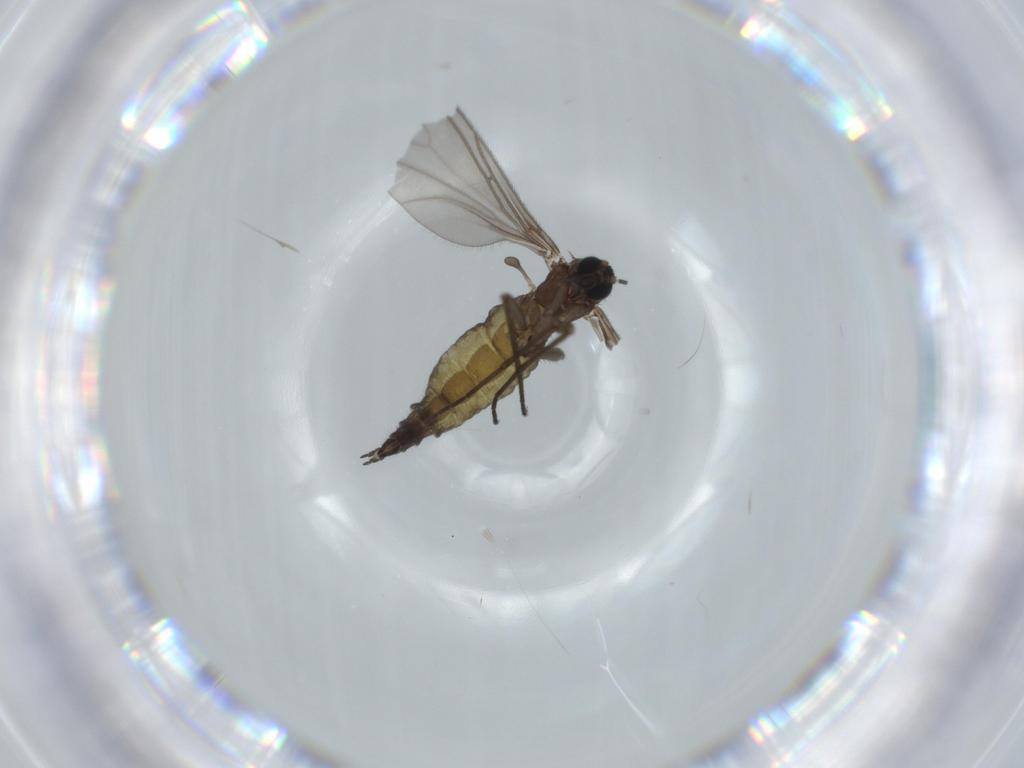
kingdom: Animalia
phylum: Arthropoda
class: Insecta
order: Diptera
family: Sciaridae
